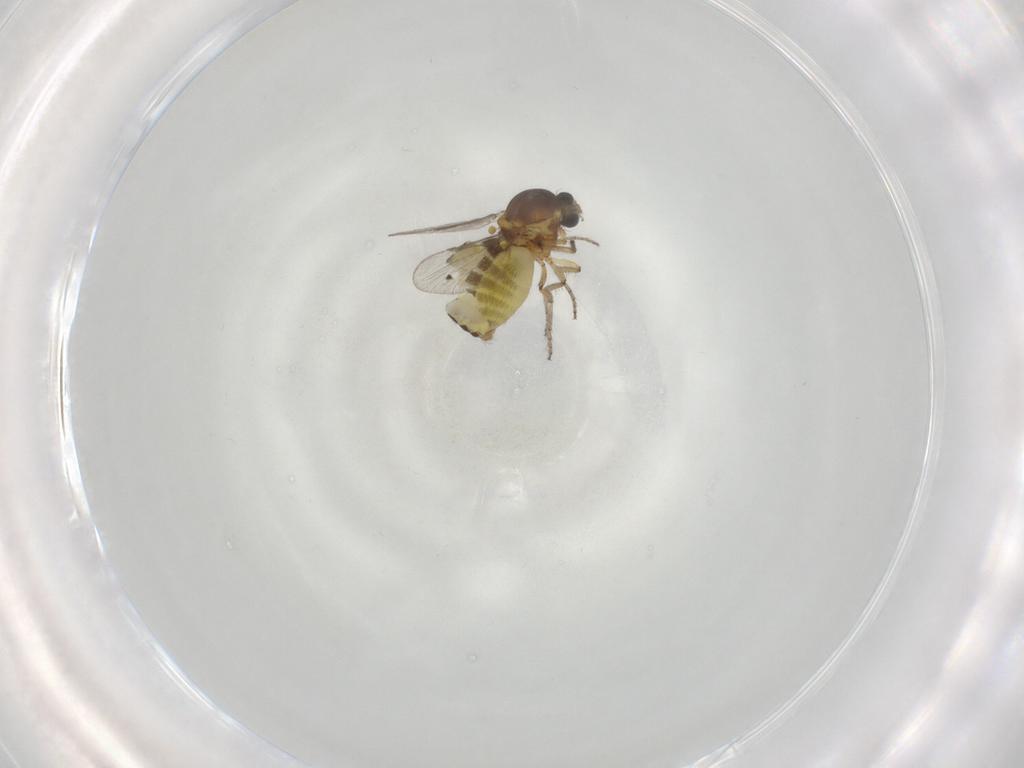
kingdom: Animalia
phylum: Arthropoda
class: Insecta
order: Diptera
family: Ceratopogonidae
